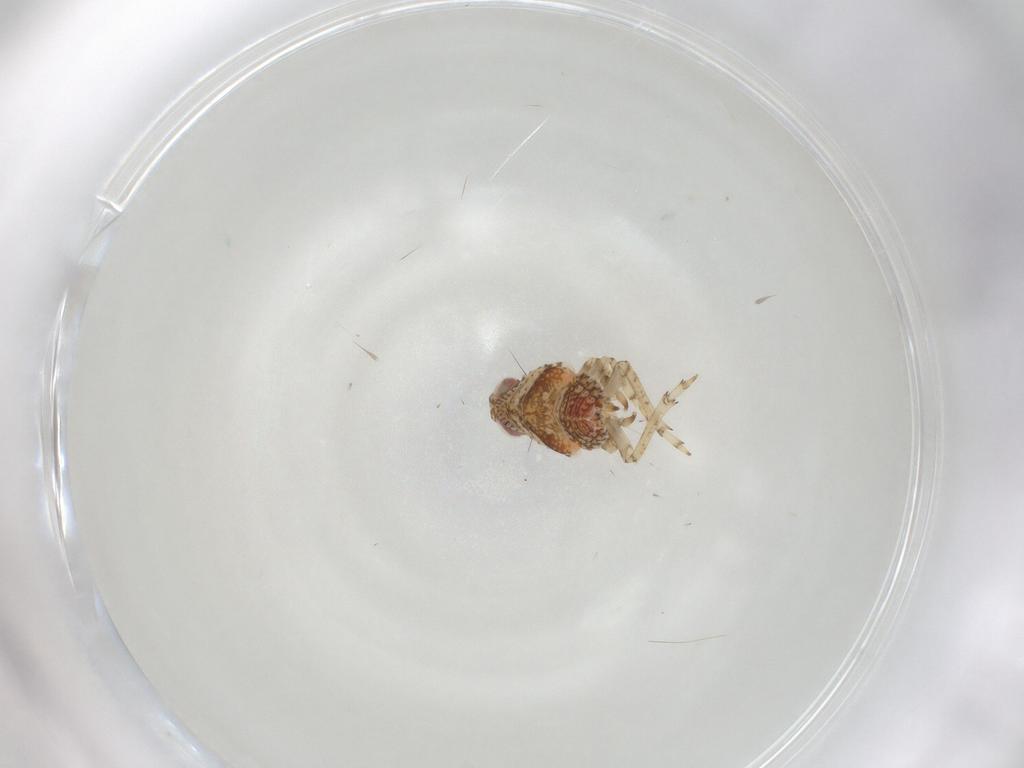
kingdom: Animalia
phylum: Arthropoda
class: Insecta
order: Hemiptera
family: Issidae
